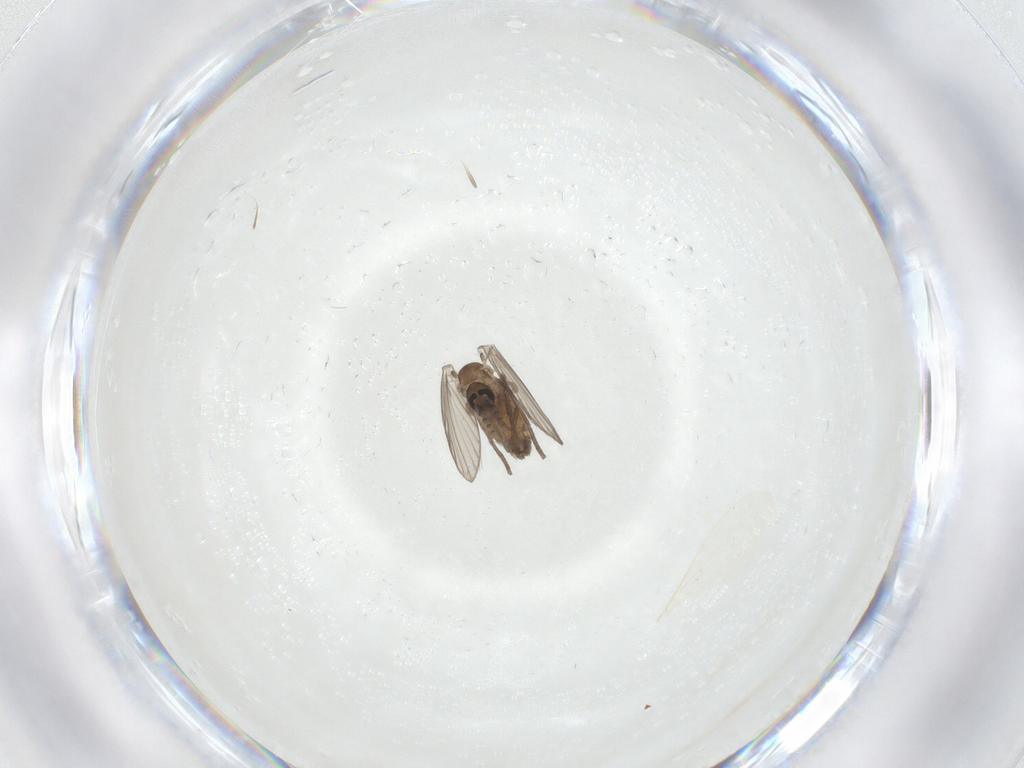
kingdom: Animalia
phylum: Arthropoda
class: Insecta
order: Diptera
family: Psychodidae
